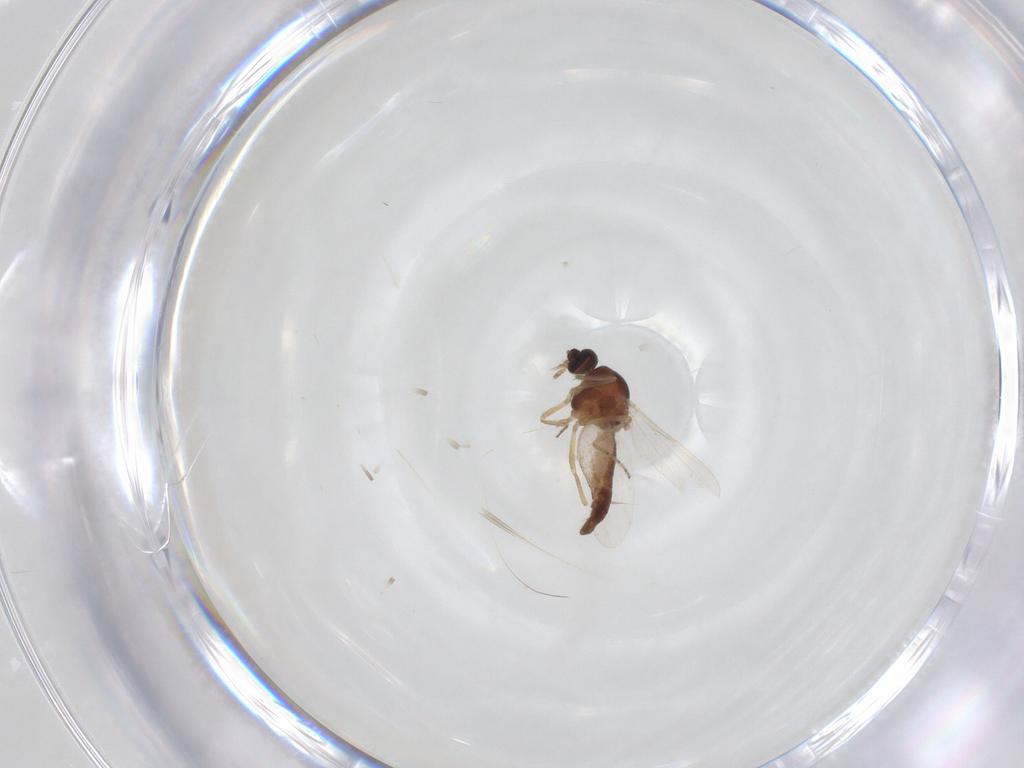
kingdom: Animalia
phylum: Arthropoda
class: Insecta
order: Diptera
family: Ceratopogonidae
